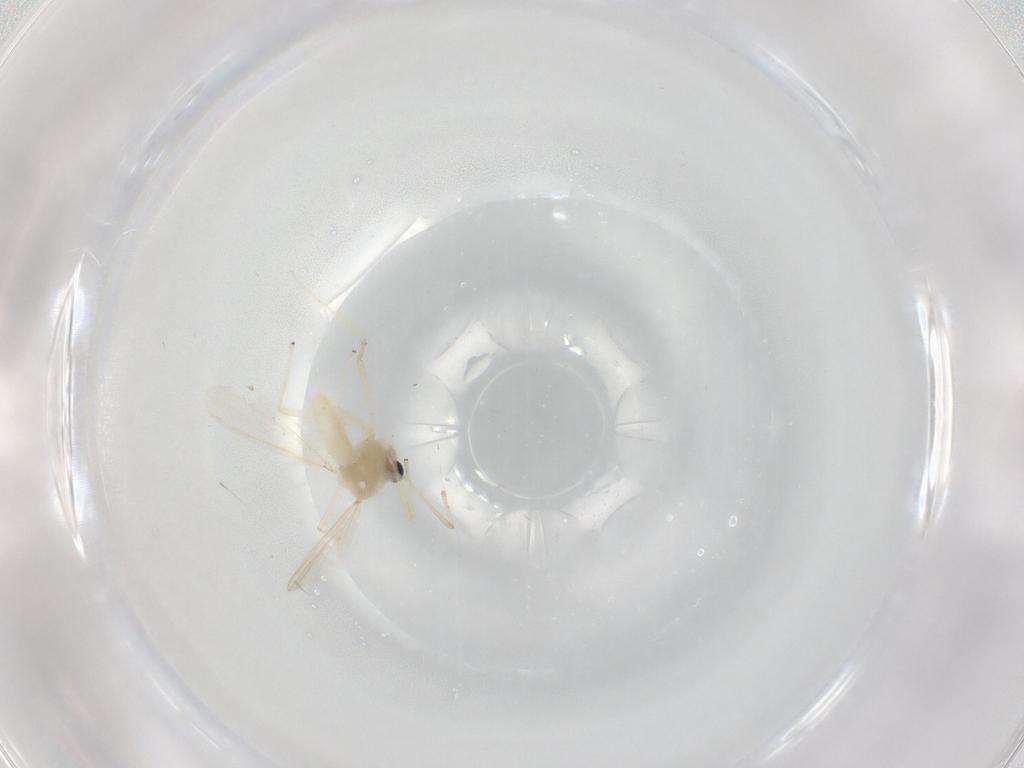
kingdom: Animalia
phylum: Arthropoda
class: Insecta
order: Diptera
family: Chironomidae
